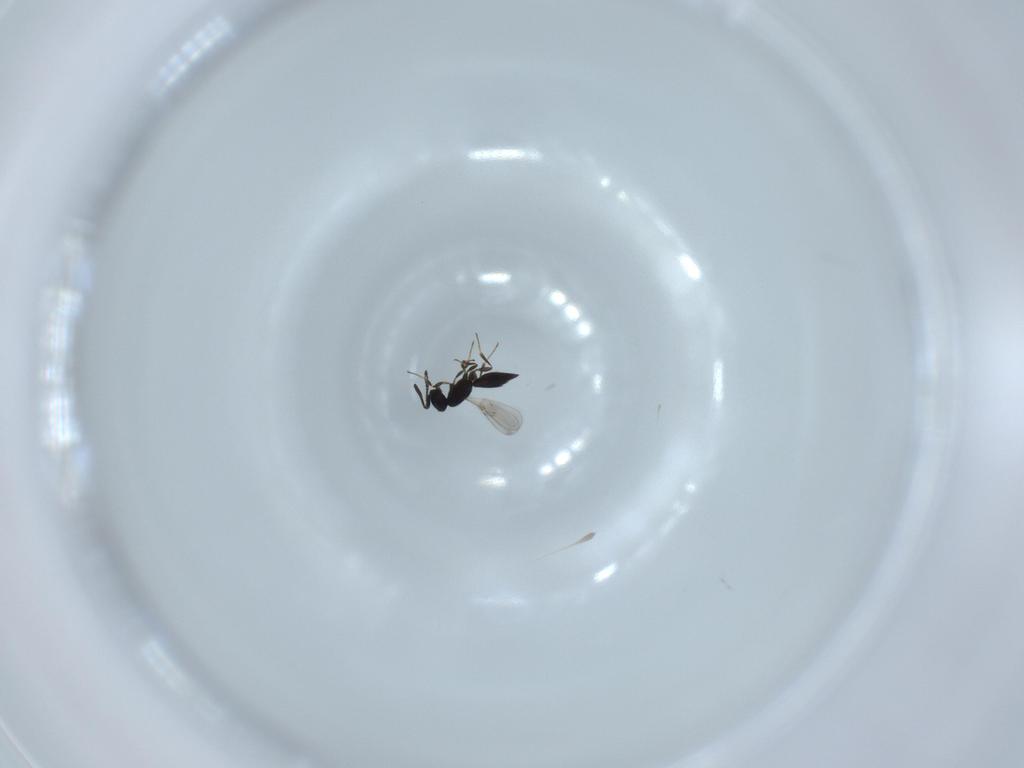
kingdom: Animalia
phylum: Arthropoda
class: Insecta
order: Hymenoptera
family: Scelionidae
